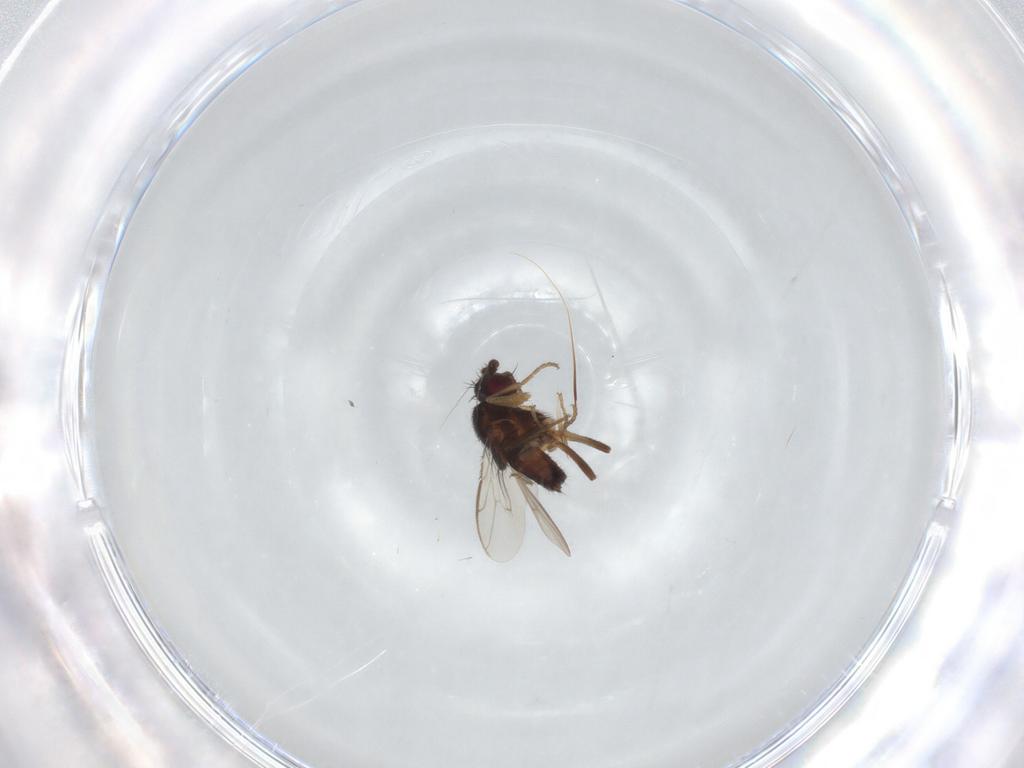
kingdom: Animalia
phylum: Arthropoda
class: Insecta
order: Diptera
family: Sphaeroceridae
